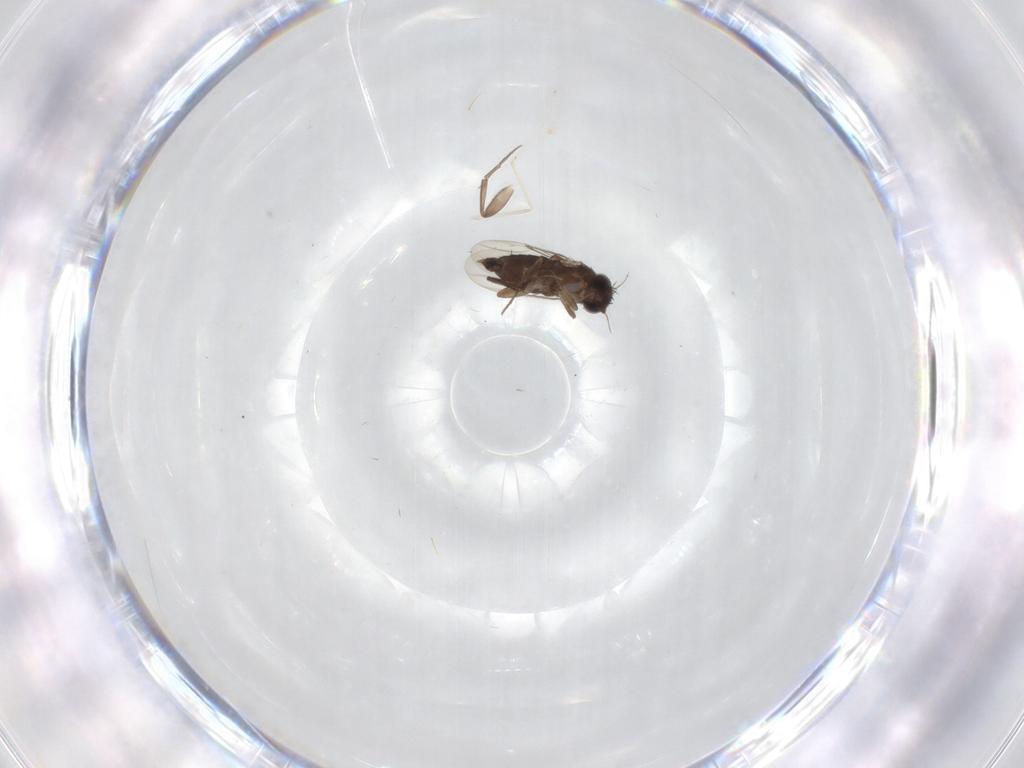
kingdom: Animalia
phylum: Arthropoda
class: Insecta
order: Diptera
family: Phoridae
